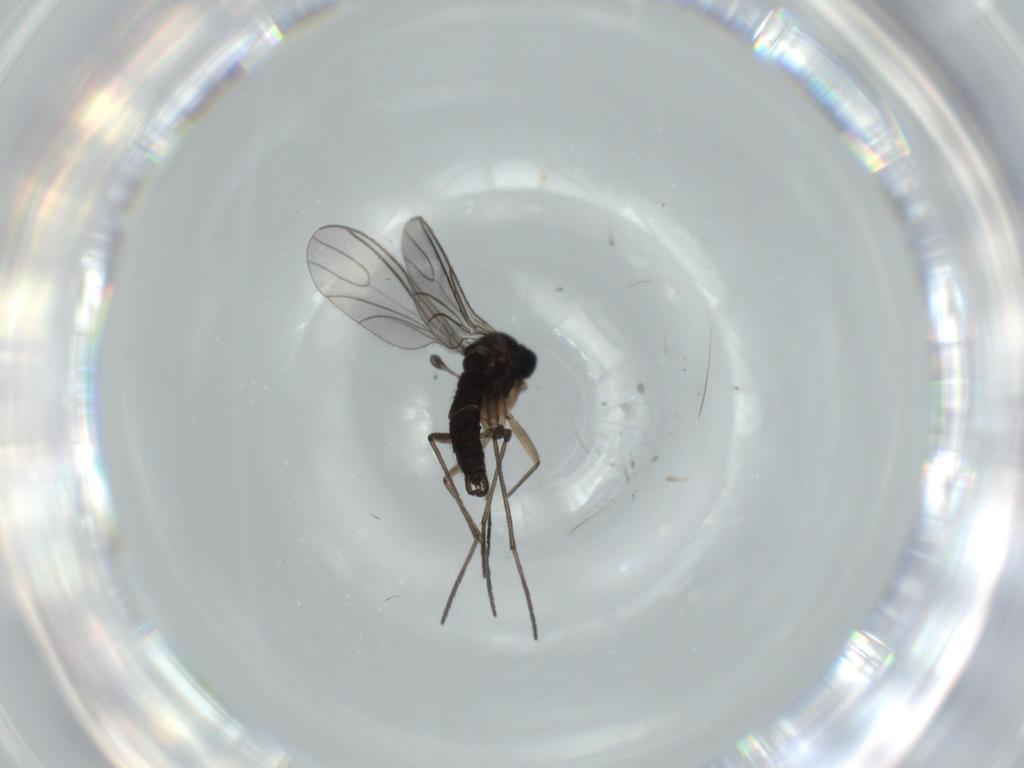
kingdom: Animalia
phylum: Arthropoda
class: Insecta
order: Diptera
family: Sciaridae
